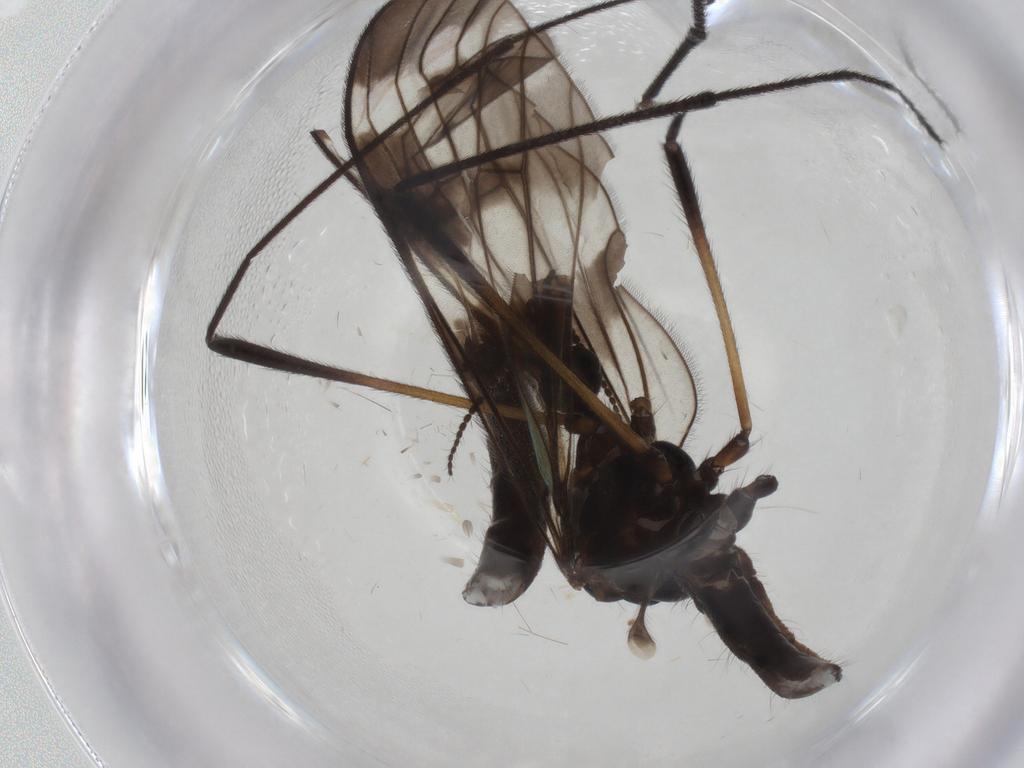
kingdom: Animalia
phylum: Arthropoda
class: Insecta
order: Diptera
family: Limoniidae
